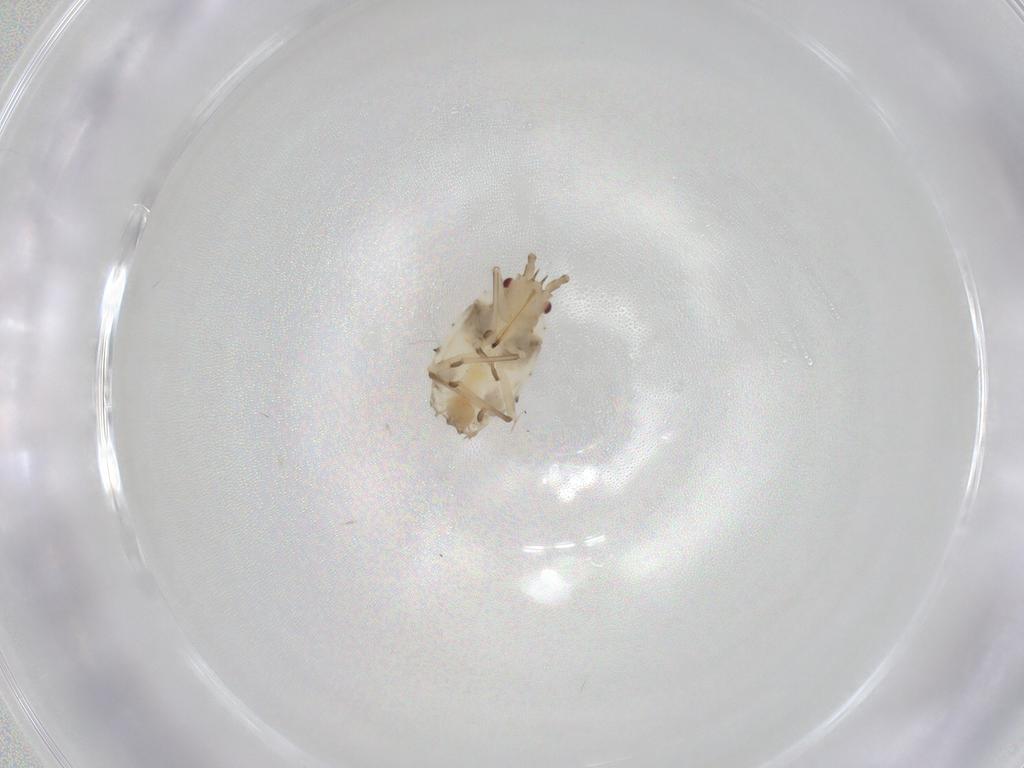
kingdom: Animalia
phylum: Arthropoda
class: Insecta
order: Hemiptera
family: Tingidae
